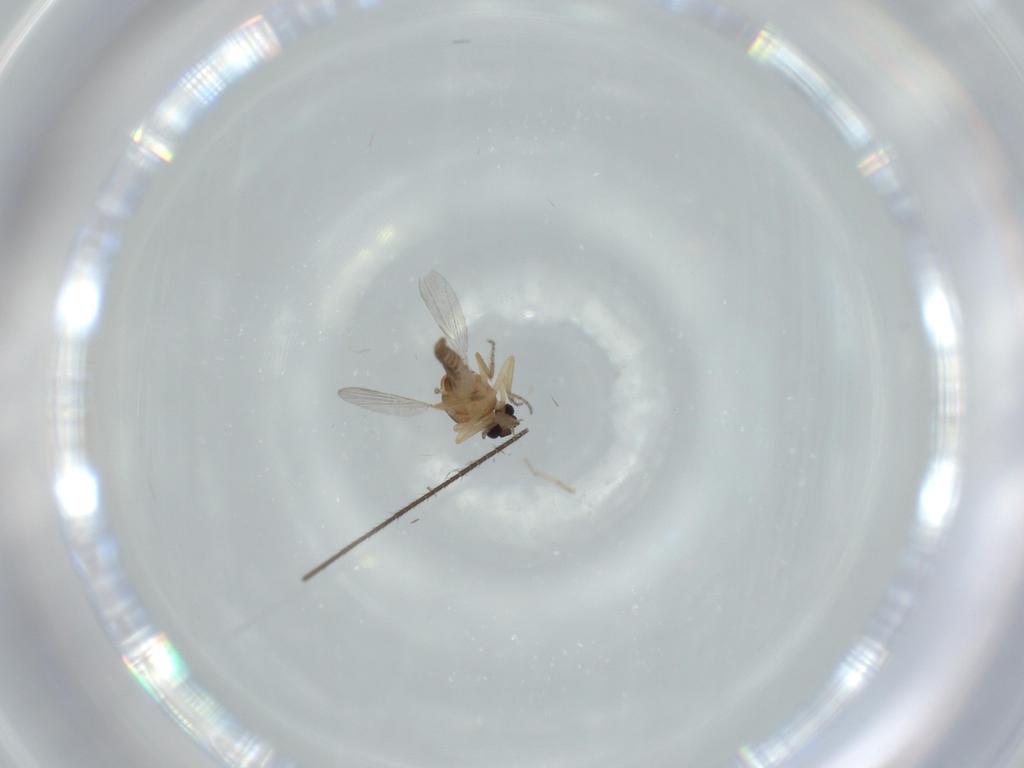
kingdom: Animalia
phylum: Arthropoda
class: Insecta
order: Diptera
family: Ceratopogonidae
